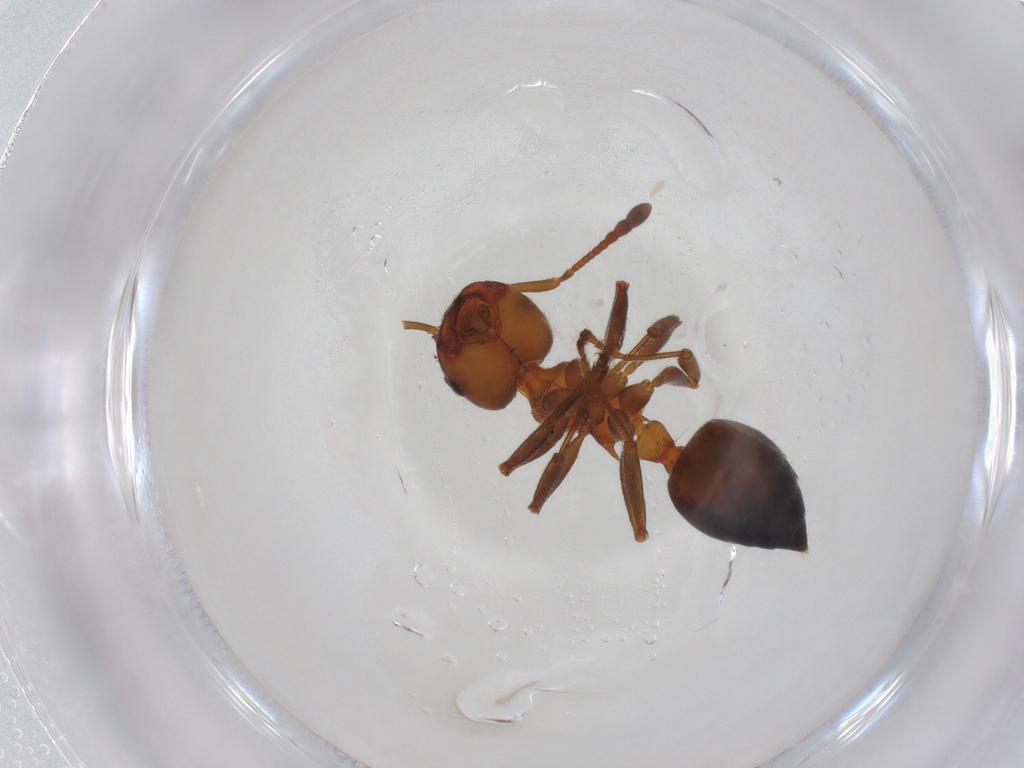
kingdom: Animalia
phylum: Arthropoda
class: Insecta
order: Hymenoptera
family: Formicidae
